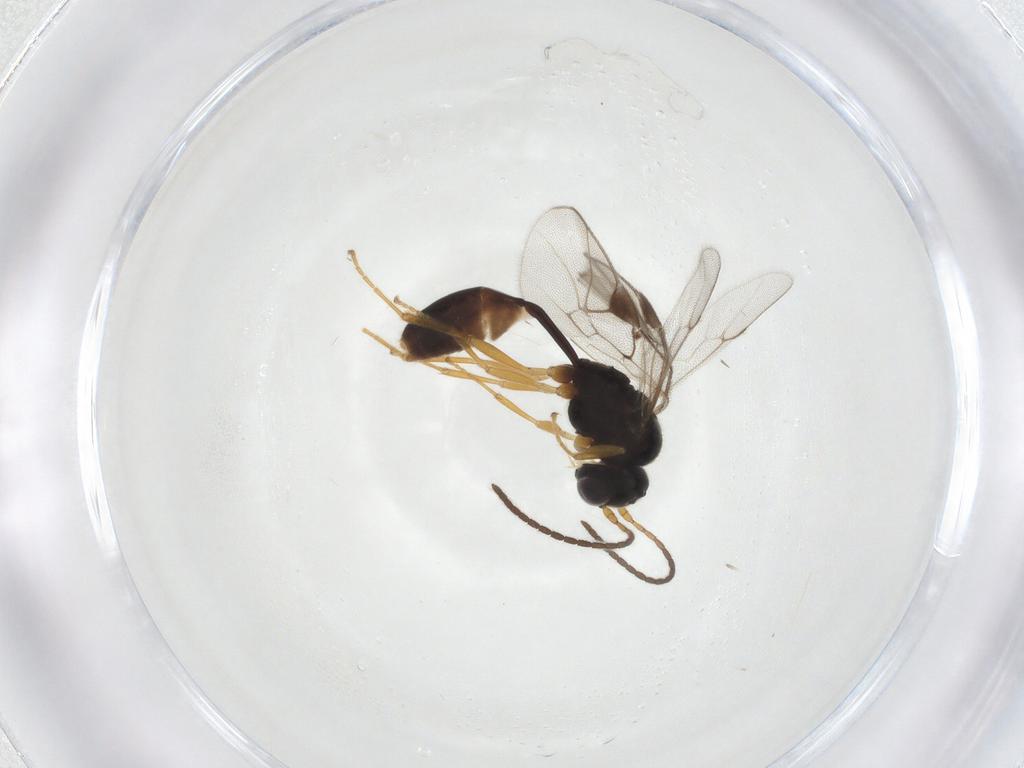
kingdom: Animalia
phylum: Arthropoda
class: Insecta
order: Hymenoptera
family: Ichneumonidae
